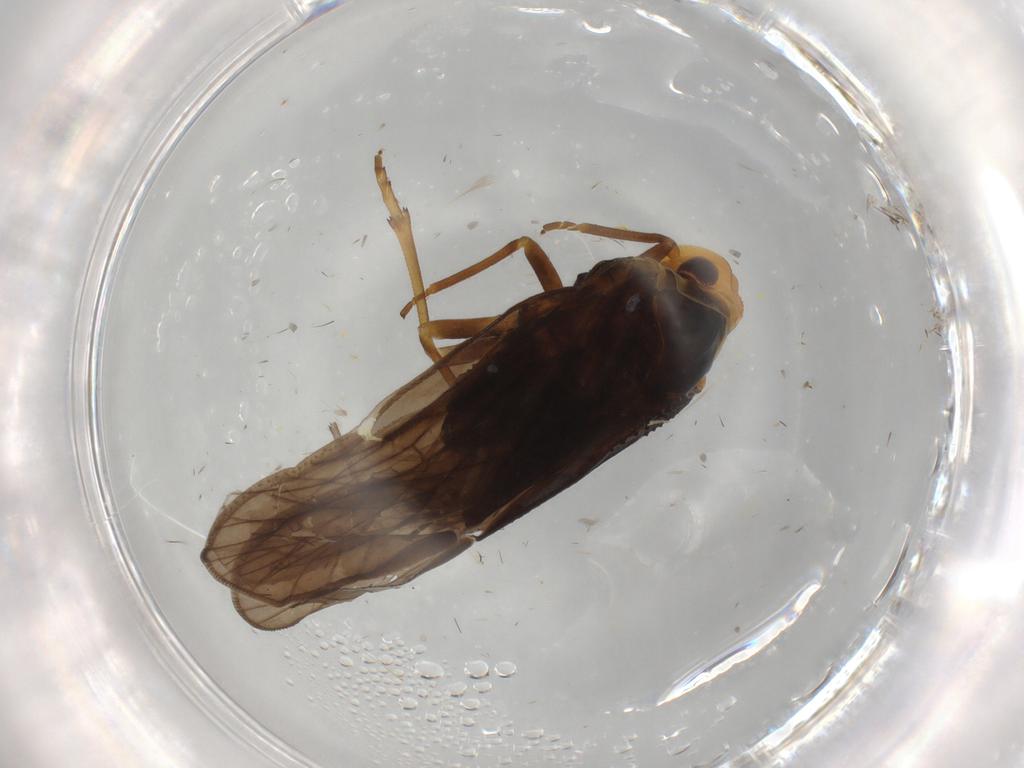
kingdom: Animalia
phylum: Arthropoda
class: Insecta
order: Hemiptera
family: Meenoplidae
